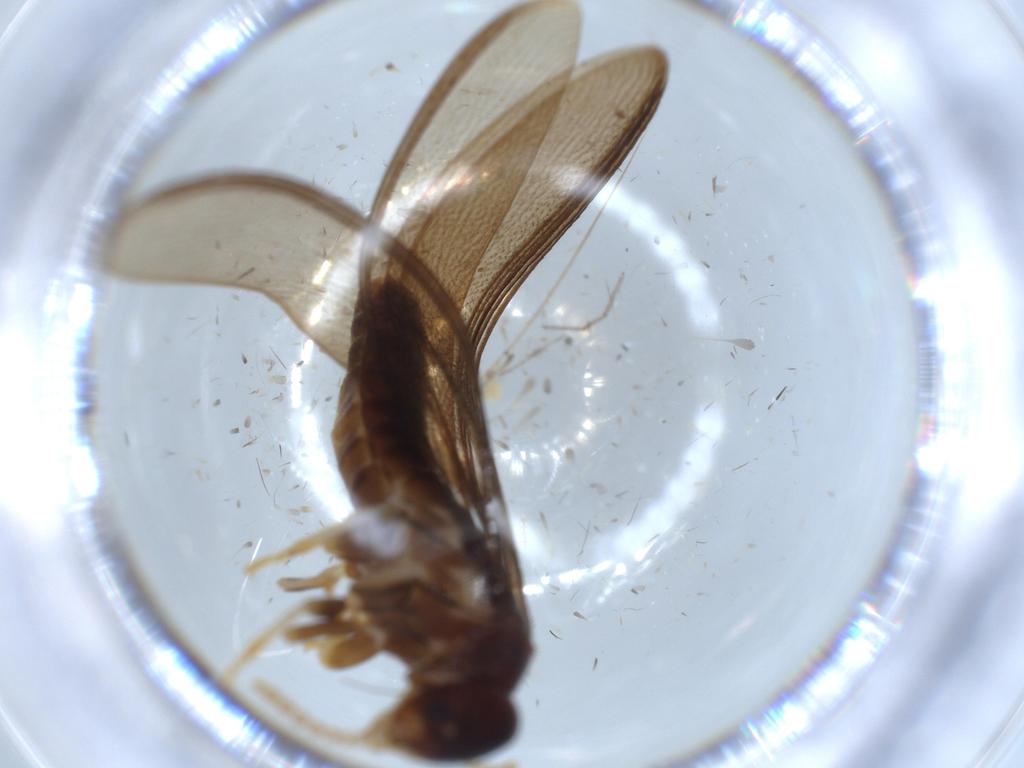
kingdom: Animalia
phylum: Arthropoda
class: Insecta
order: Blattodea
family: Ectobiidae
